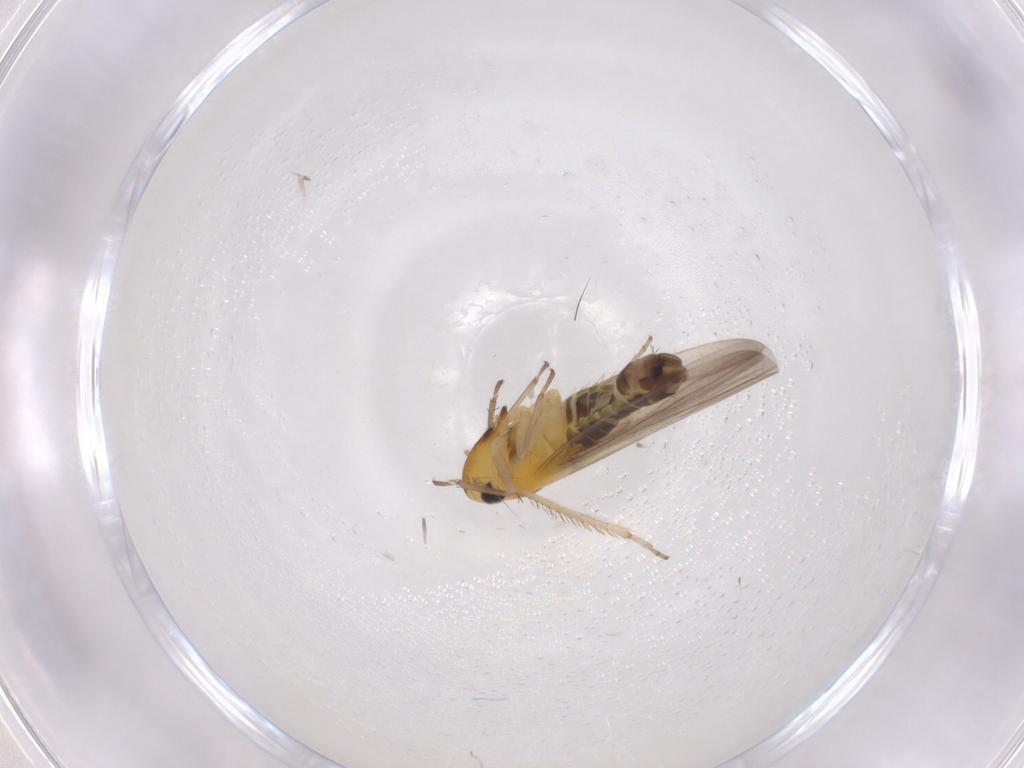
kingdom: Animalia
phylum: Arthropoda
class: Insecta
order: Hemiptera
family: Cicadellidae
